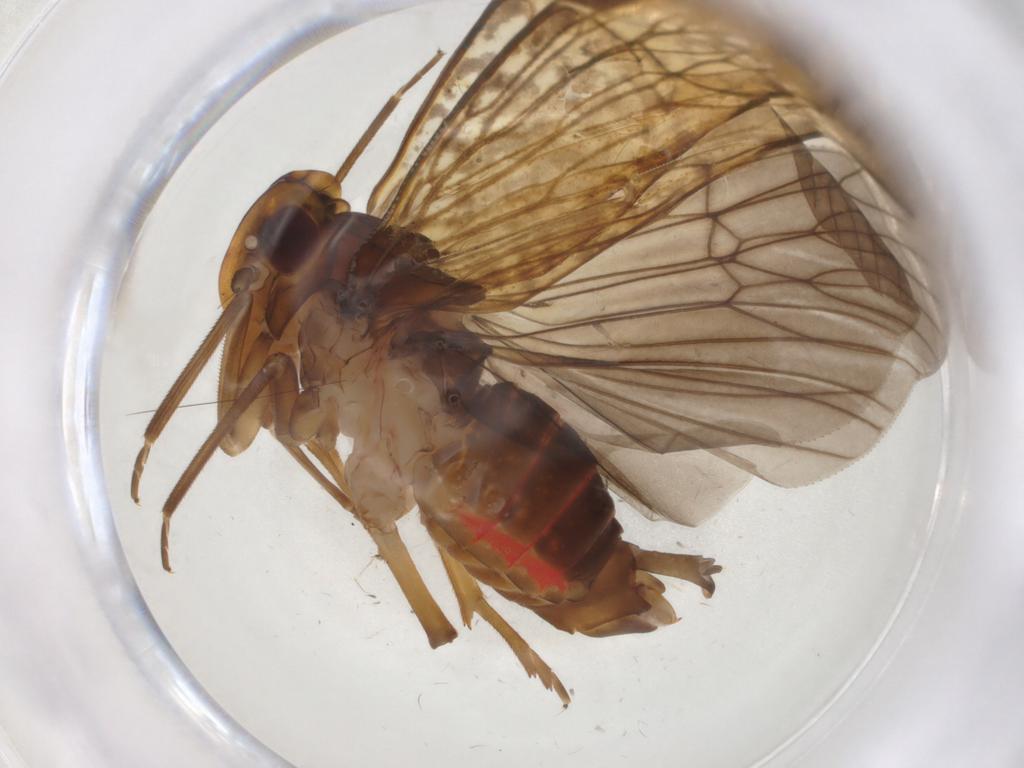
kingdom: Animalia
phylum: Arthropoda
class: Insecta
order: Hemiptera
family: Cixiidae
